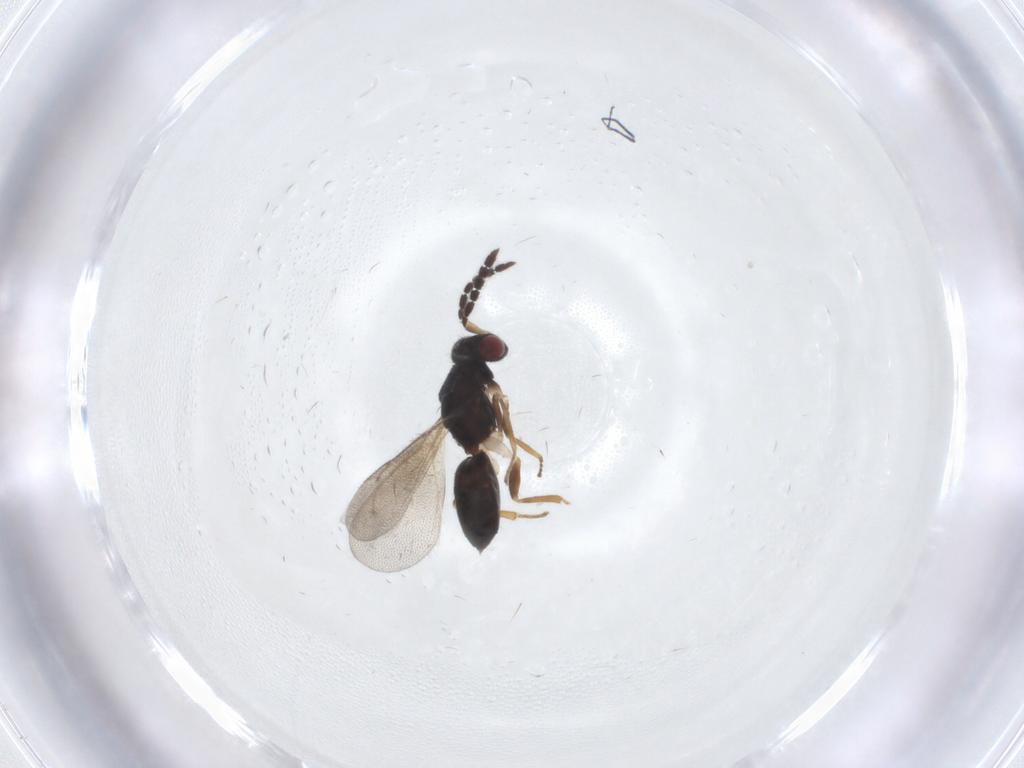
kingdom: Animalia
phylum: Arthropoda
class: Insecta
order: Hymenoptera
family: Eulophidae
